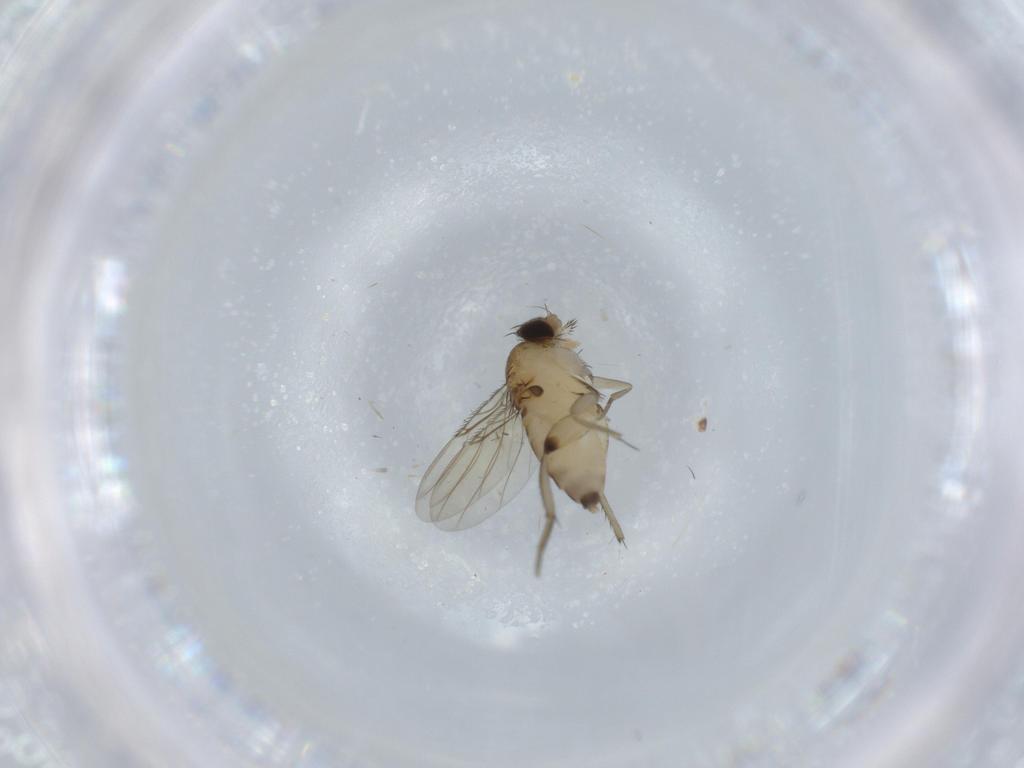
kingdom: Animalia
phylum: Arthropoda
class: Insecta
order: Diptera
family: Phoridae
